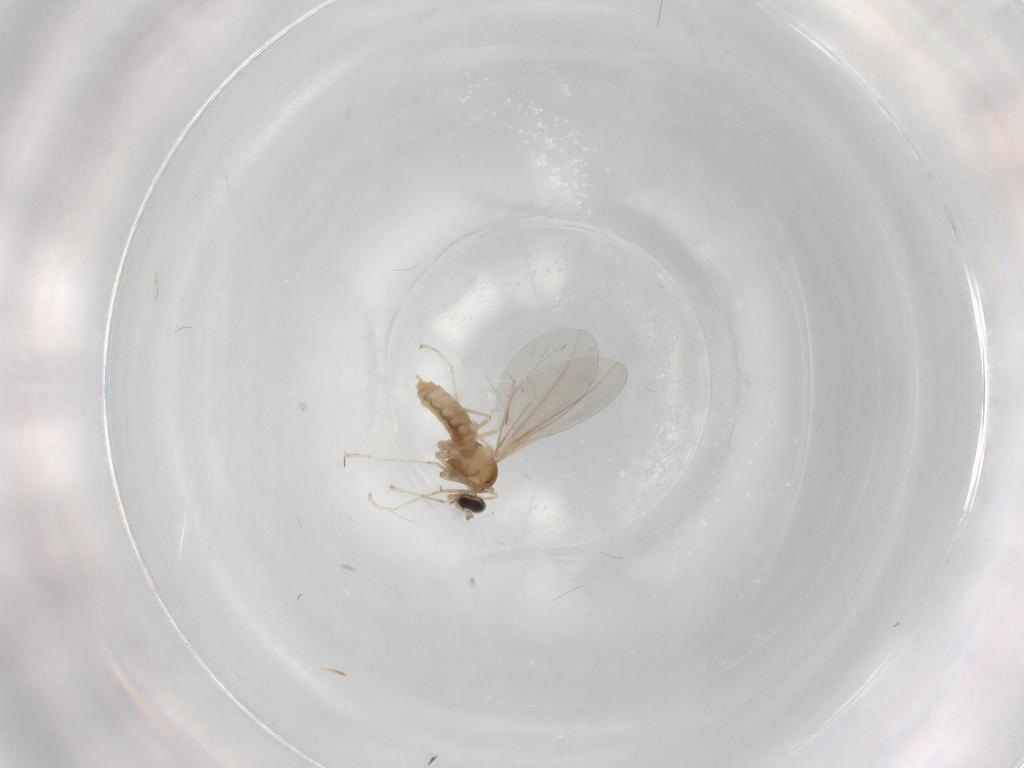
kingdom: Animalia
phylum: Arthropoda
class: Insecta
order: Diptera
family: Cecidomyiidae
